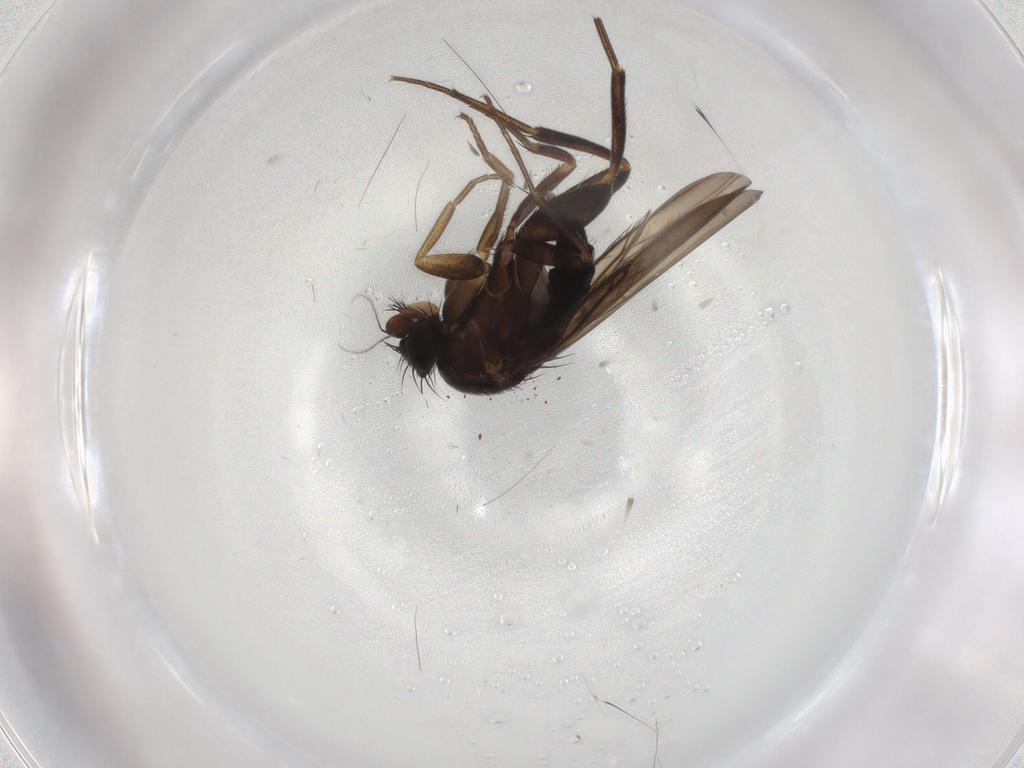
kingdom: Animalia
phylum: Arthropoda
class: Insecta
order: Diptera
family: Phoridae
